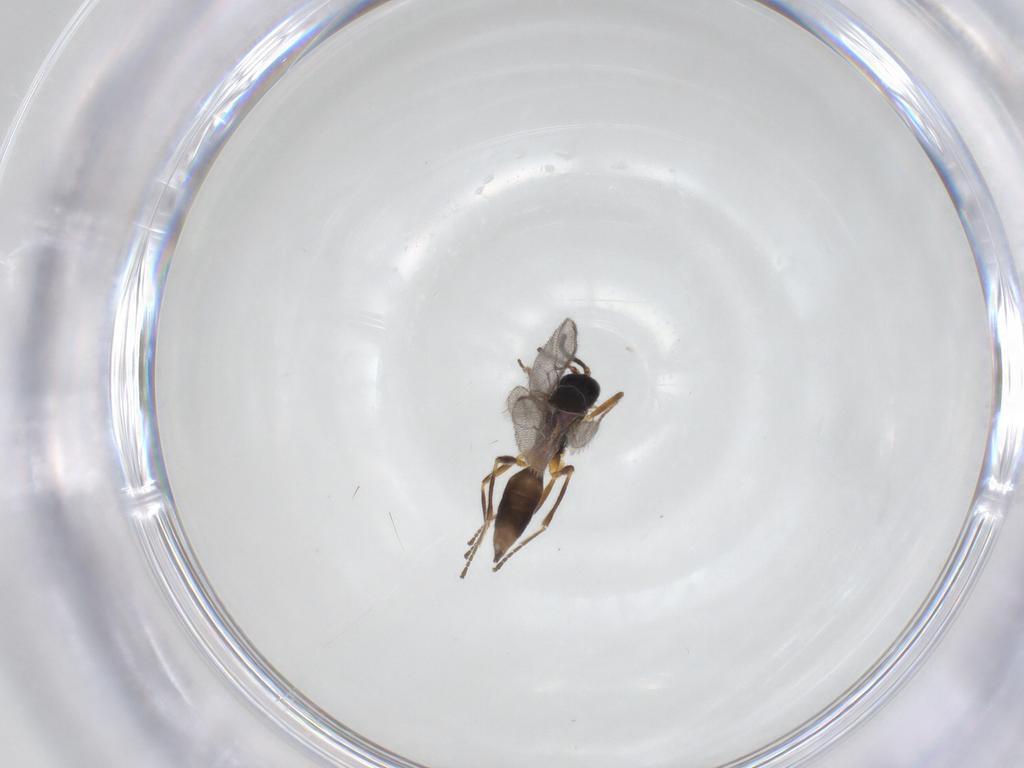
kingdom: Animalia
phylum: Arthropoda
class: Insecta
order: Hymenoptera
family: Braconidae
